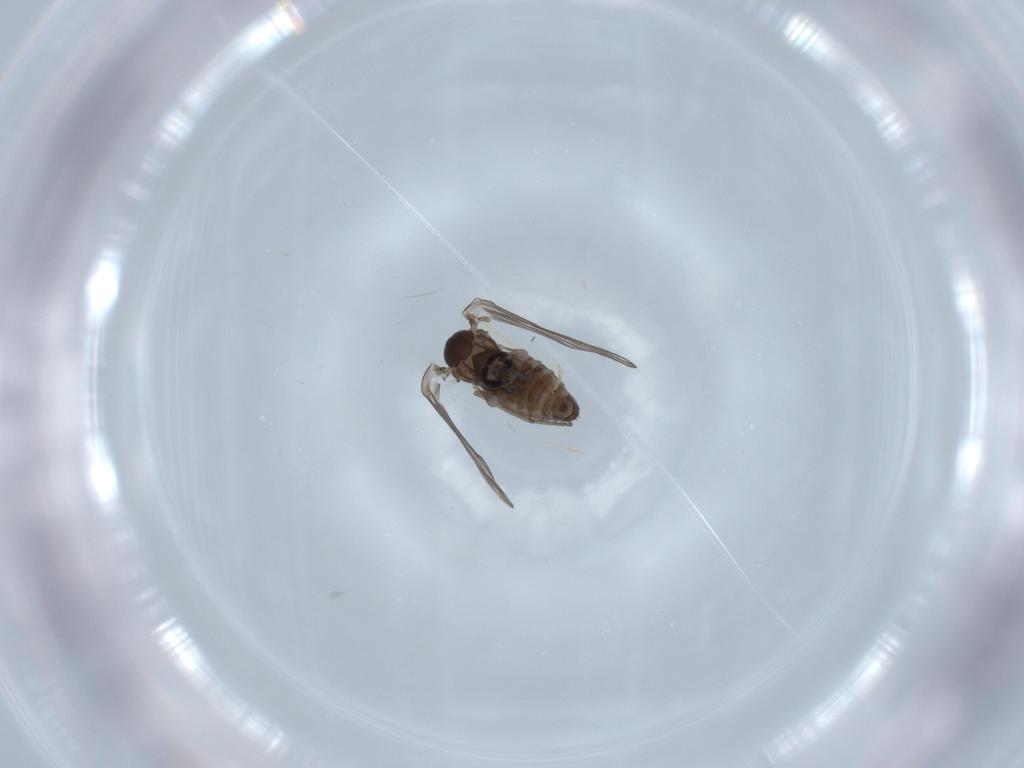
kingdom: Animalia
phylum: Arthropoda
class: Insecta
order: Diptera
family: Psychodidae
